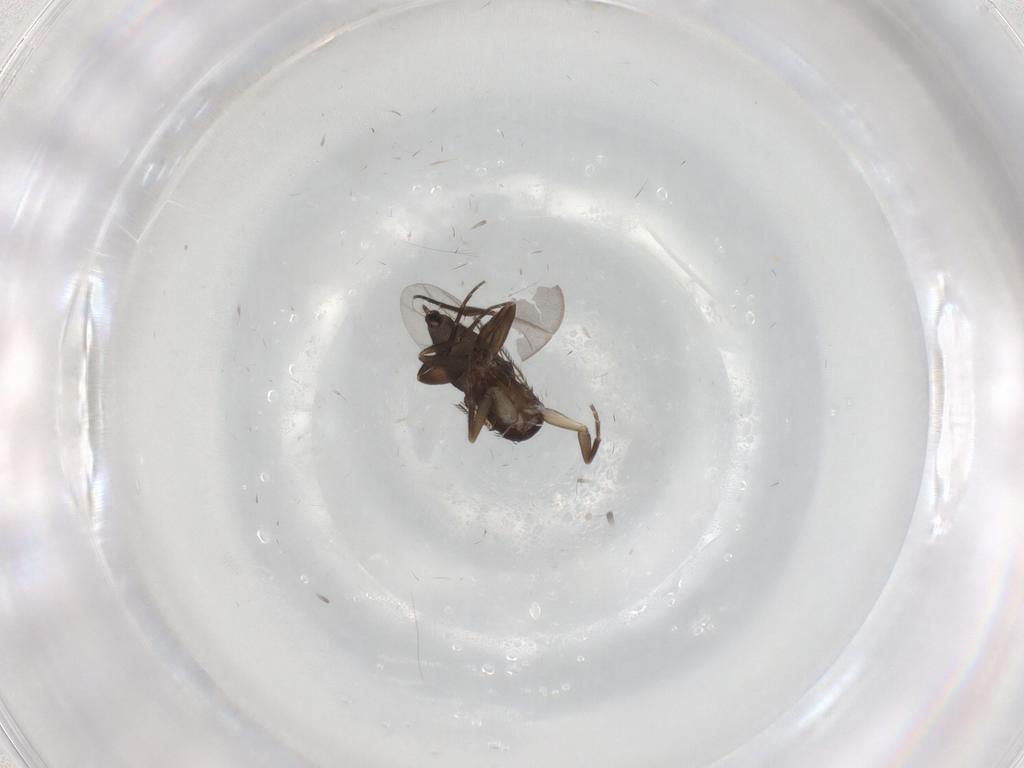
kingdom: Animalia
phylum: Arthropoda
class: Insecta
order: Diptera
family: Phoridae
